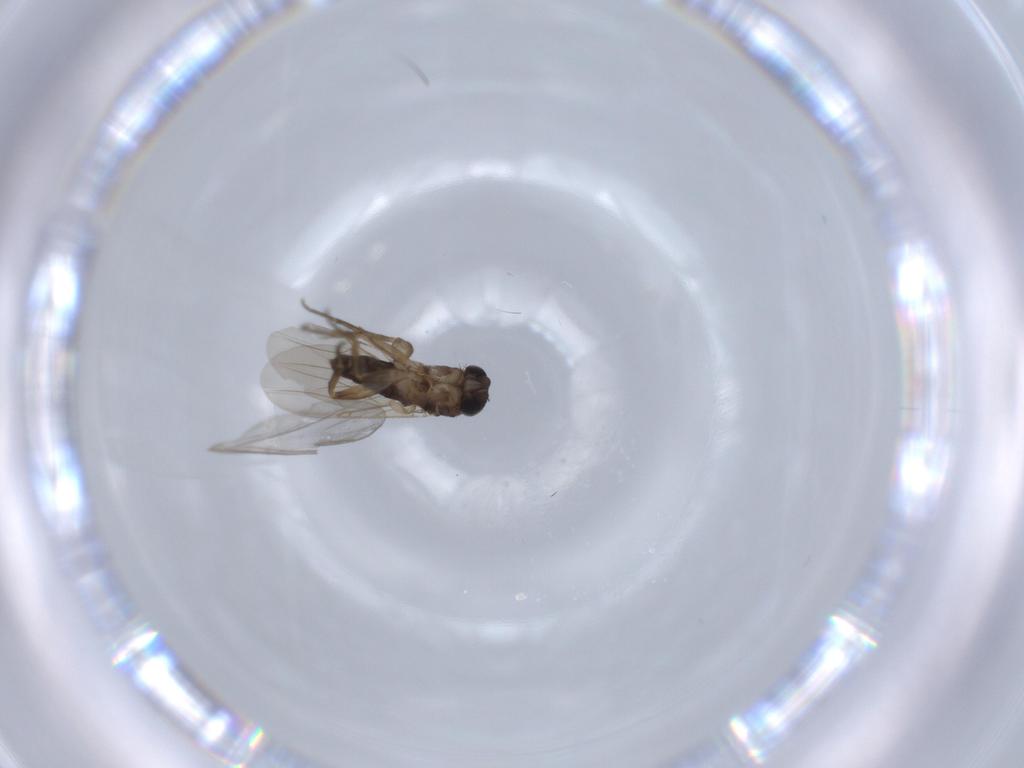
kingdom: Animalia
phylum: Arthropoda
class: Insecta
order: Diptera
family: Phoridae
